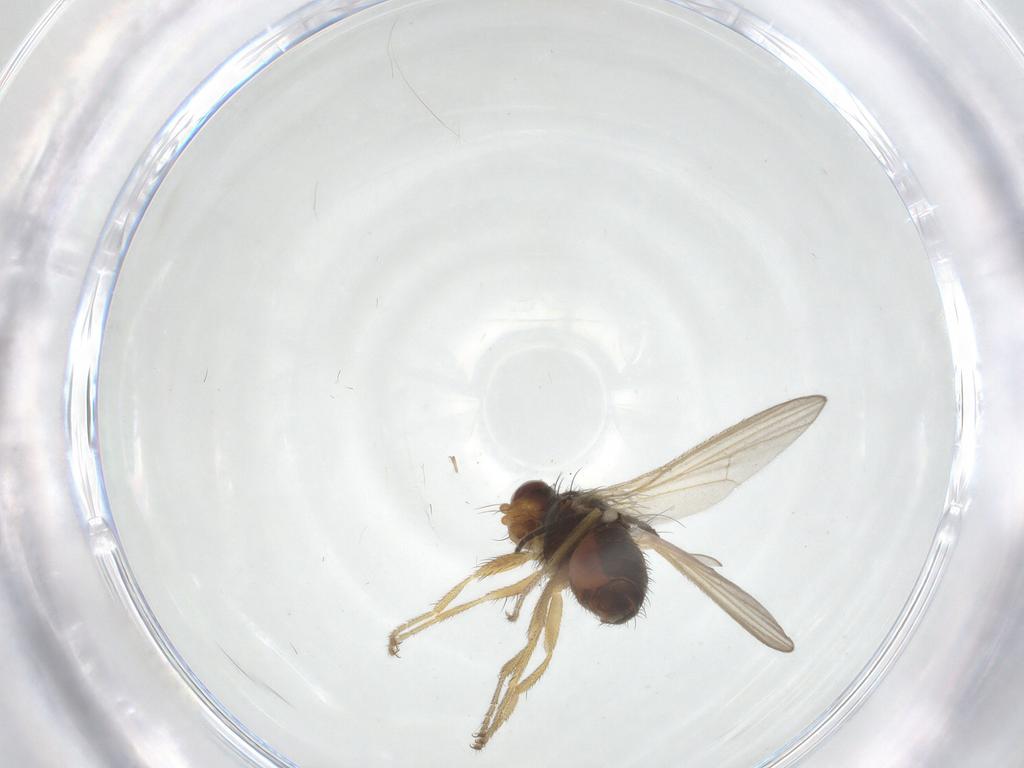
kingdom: Animalia
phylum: Arthropoda
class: Insecta
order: Diptera
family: Heleomyzidae
